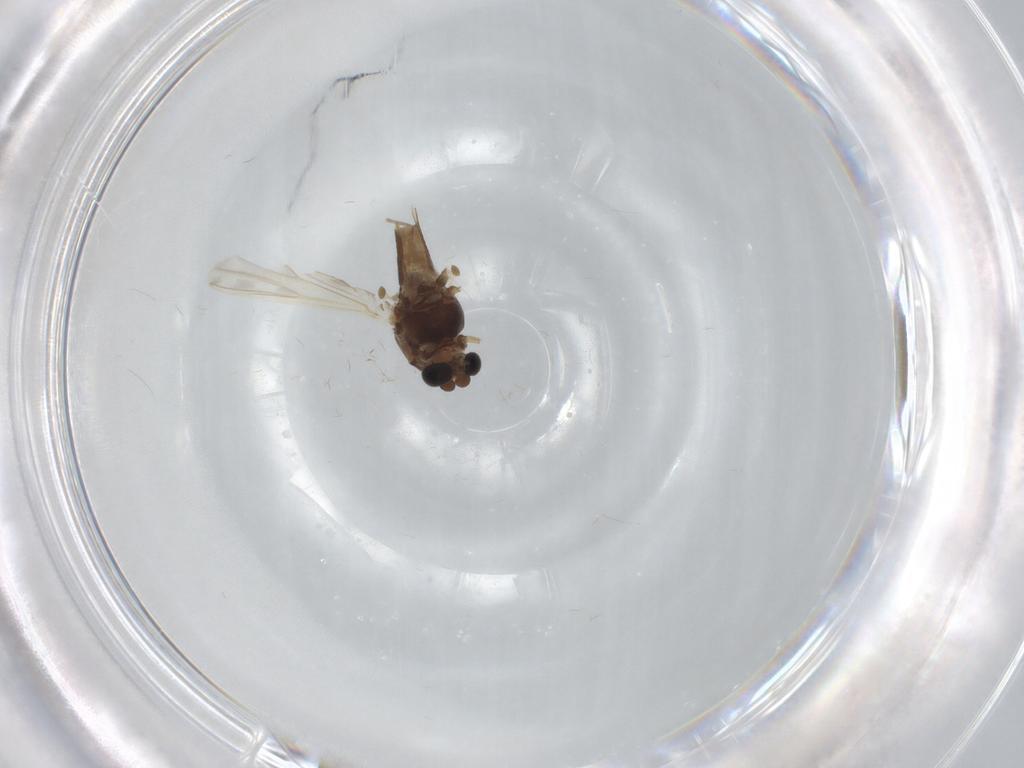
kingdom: Animalia
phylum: Arthropoda
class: Insecta
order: Diptera
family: Chironomidae
